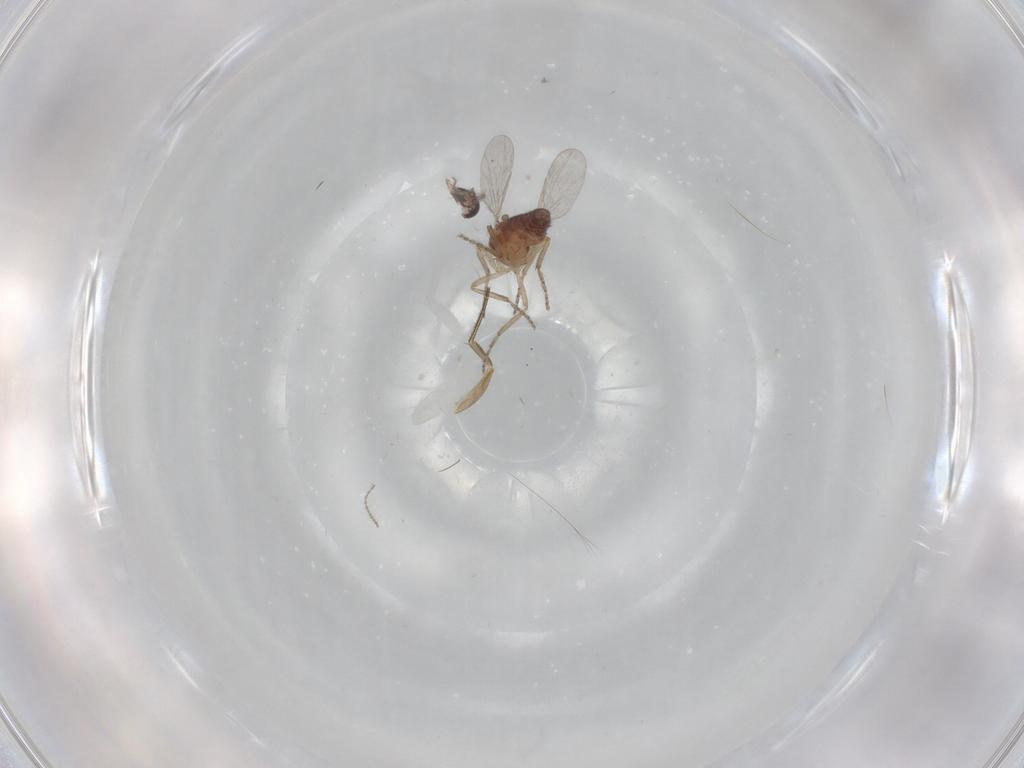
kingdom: Animalia
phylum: Arthropoda
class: Insecta
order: Diptera
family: Ceratopogonidae
